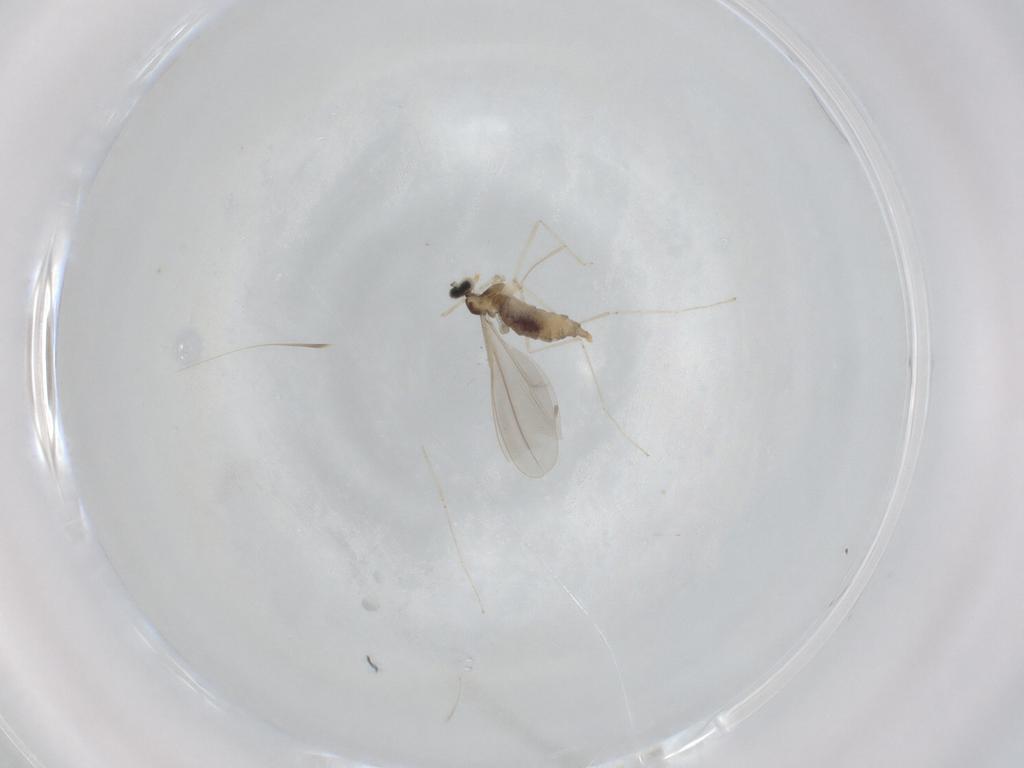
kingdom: Animalia
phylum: Arthropoda
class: Insecta
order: Diptera
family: Cecidomyiidae
